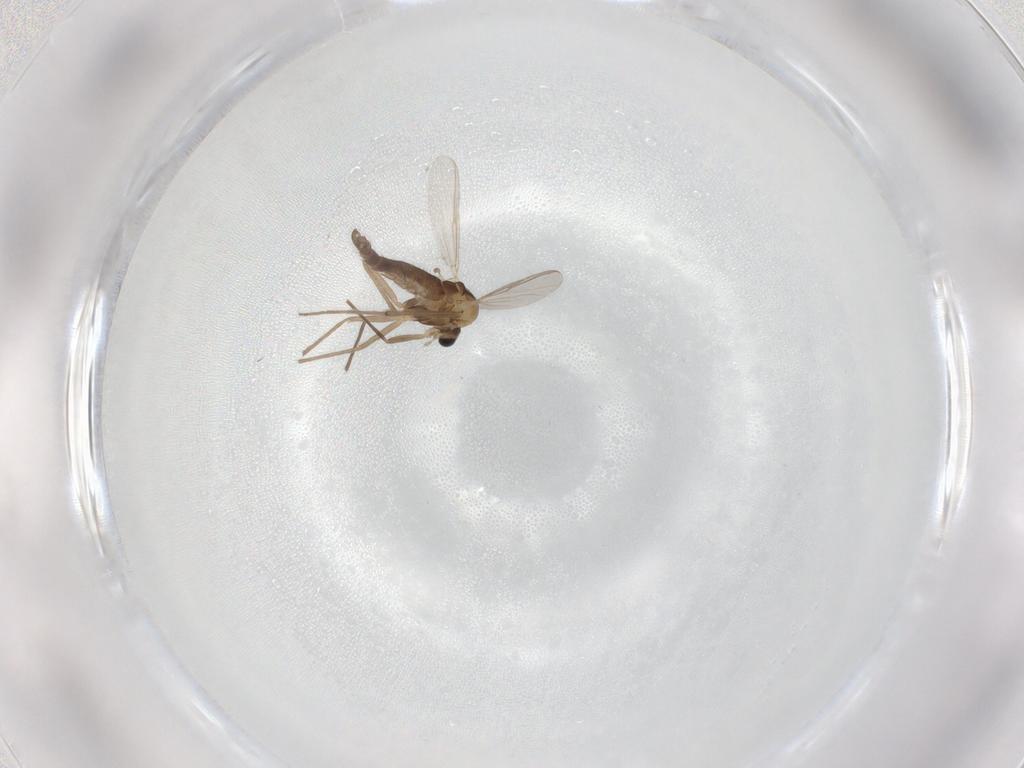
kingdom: Animalia
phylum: Arthropoda
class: Insecta
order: Diptera
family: Chironomidae
